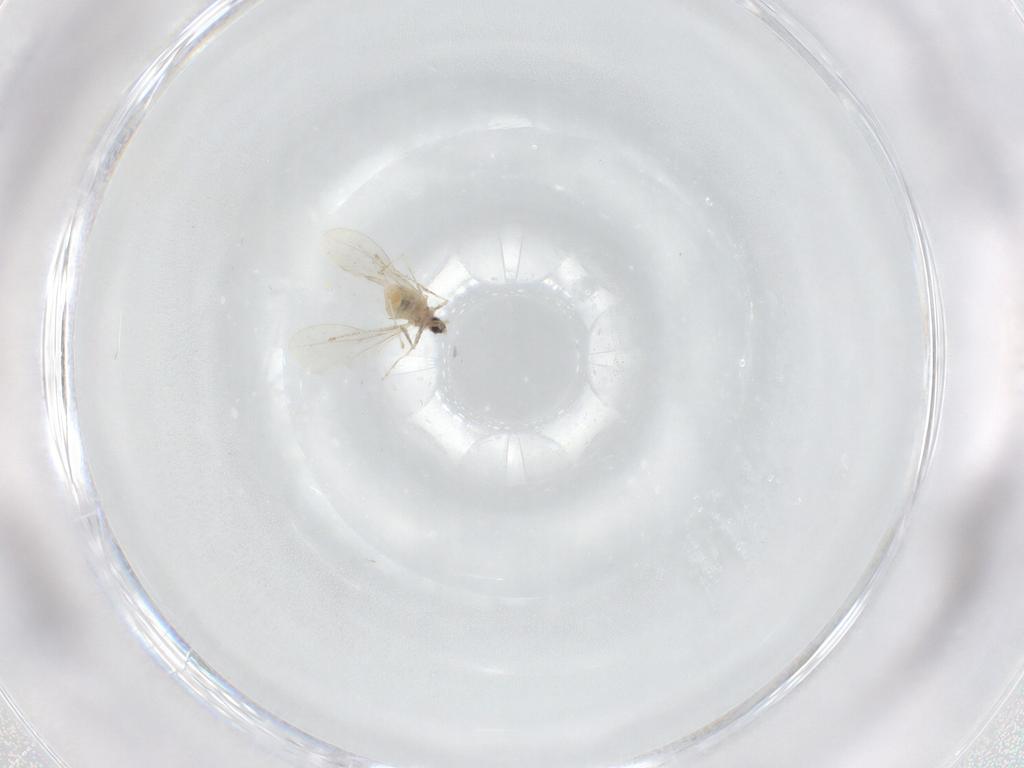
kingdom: Animalia
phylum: Arthropoda
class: Insecta
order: Diptera
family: Cecidomyiidae
